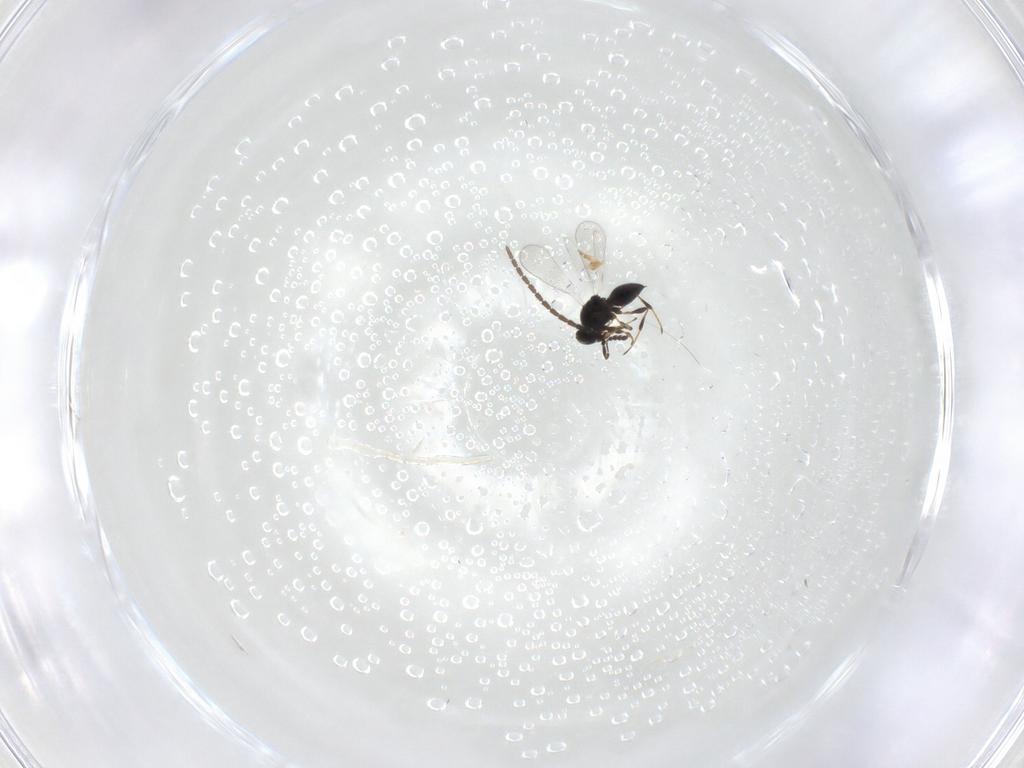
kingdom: Animalia
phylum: Arthropoda
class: Insecta
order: Hymenoptera
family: Platygastridae
